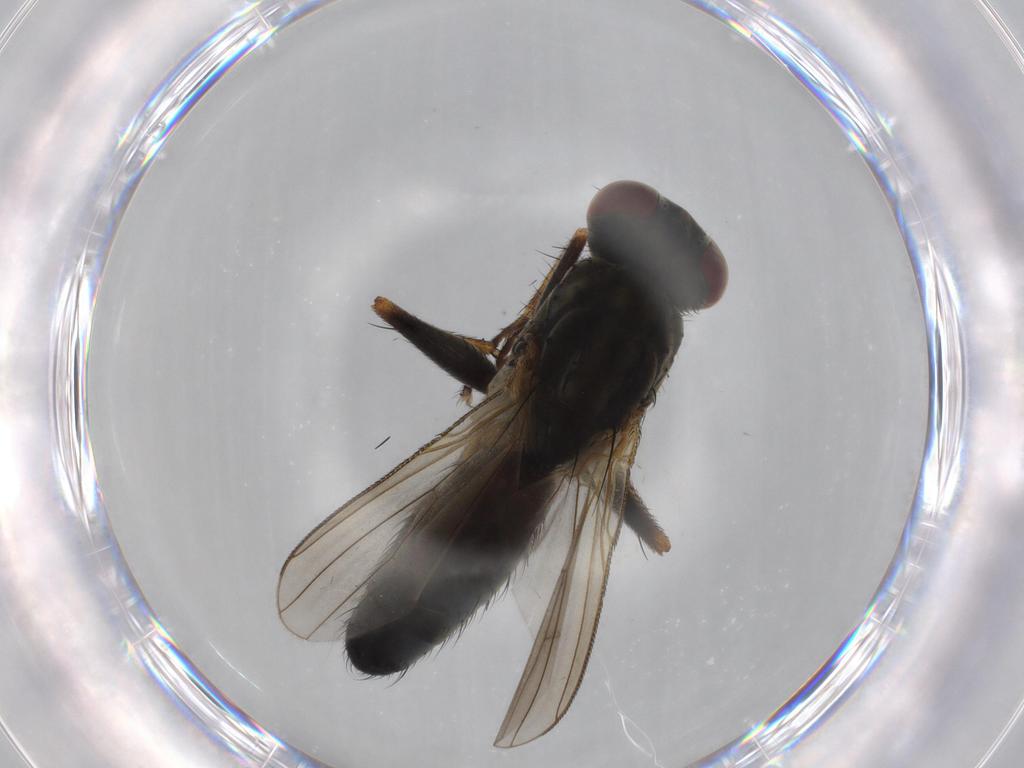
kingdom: Animalia
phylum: Arthropoda
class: Insecta
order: Diptera
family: Muscidae
